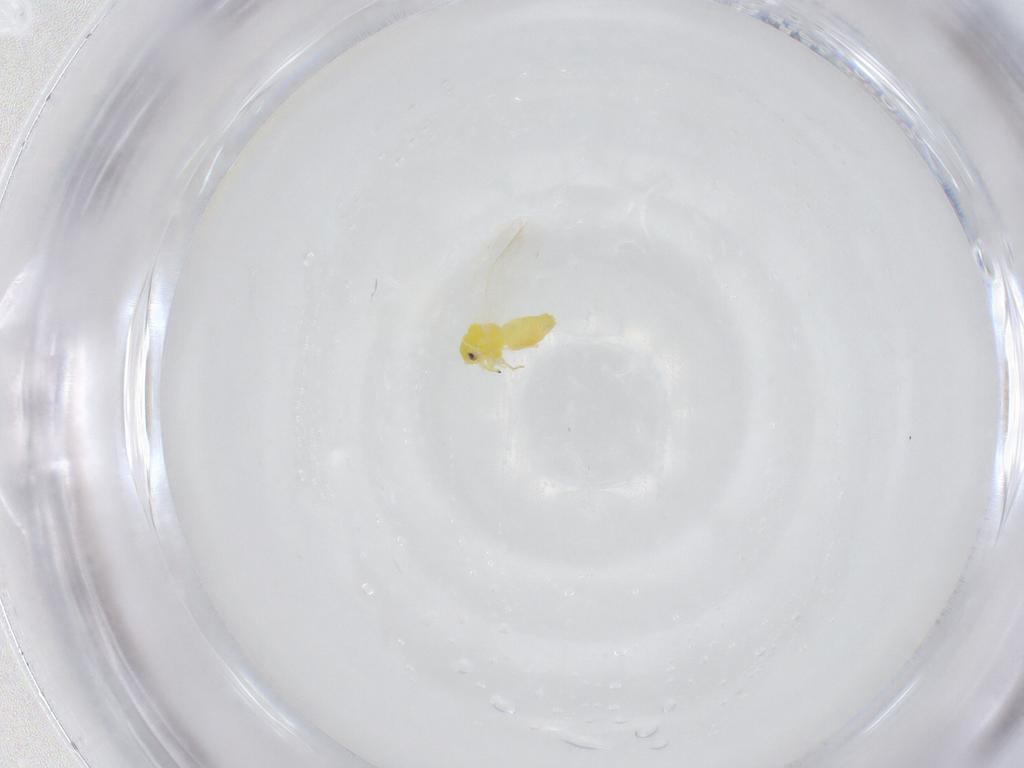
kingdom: Animalia
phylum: Arthropoda
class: Insecta
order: Hemiptera
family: Aleyrodidae
